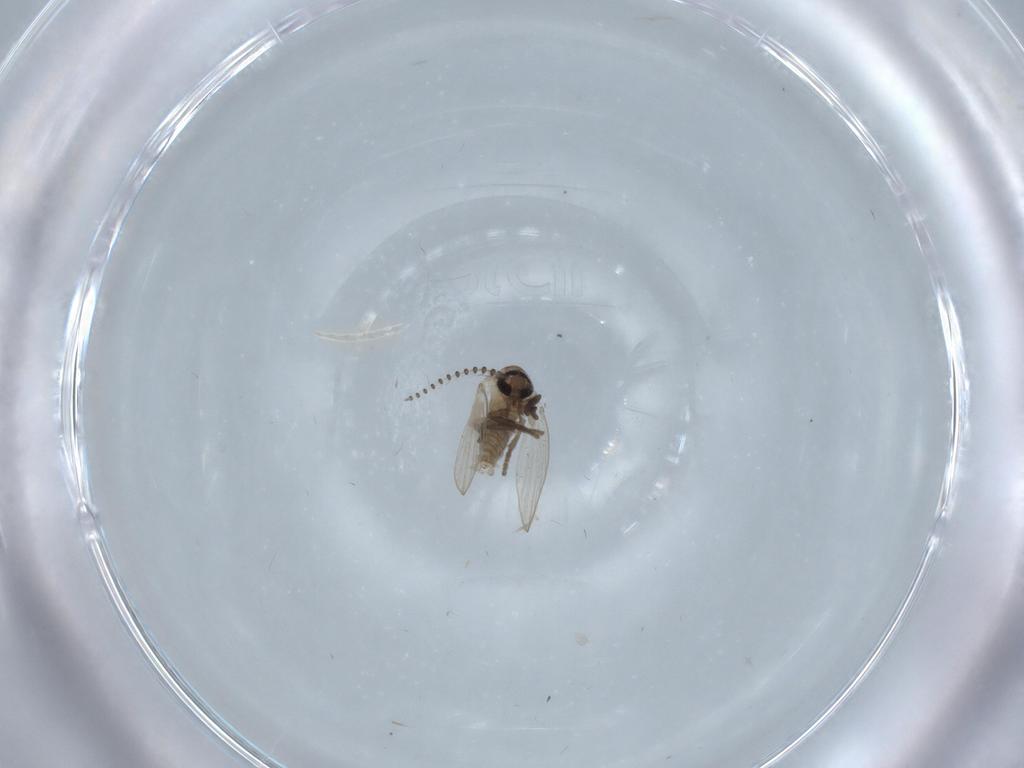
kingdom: Animalia
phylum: Arthropoda
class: Insecta
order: Diptera
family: Psychodidae
